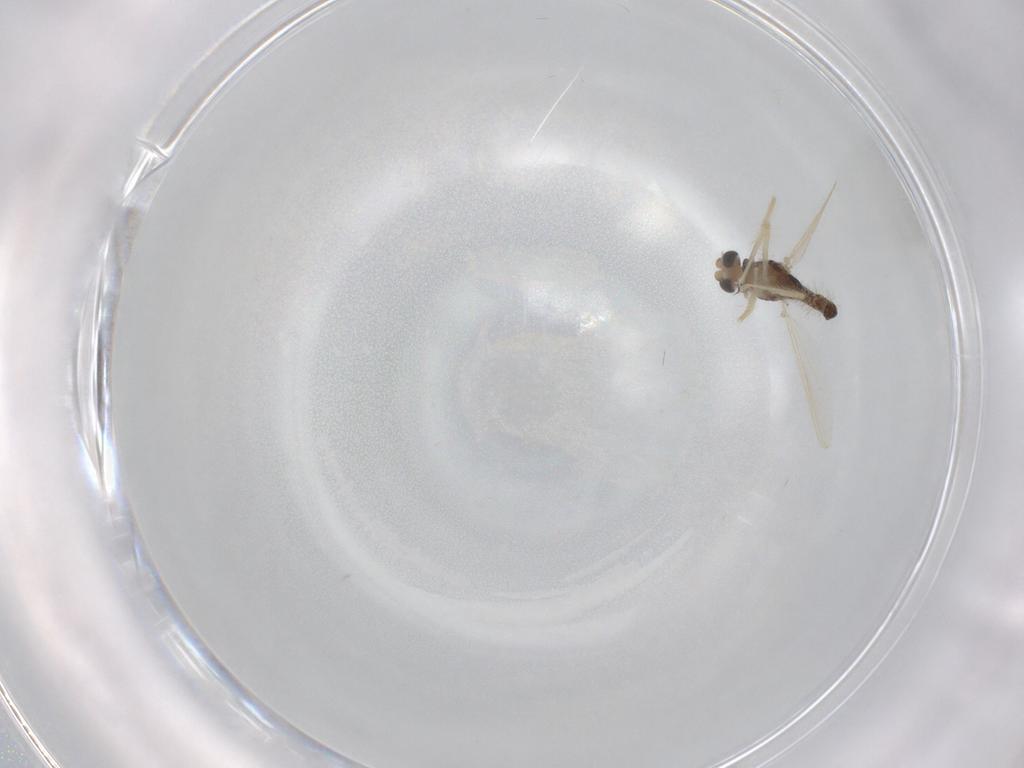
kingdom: Animalia
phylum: Arthropoda
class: Insecta
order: Diptera
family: Chironomidae
